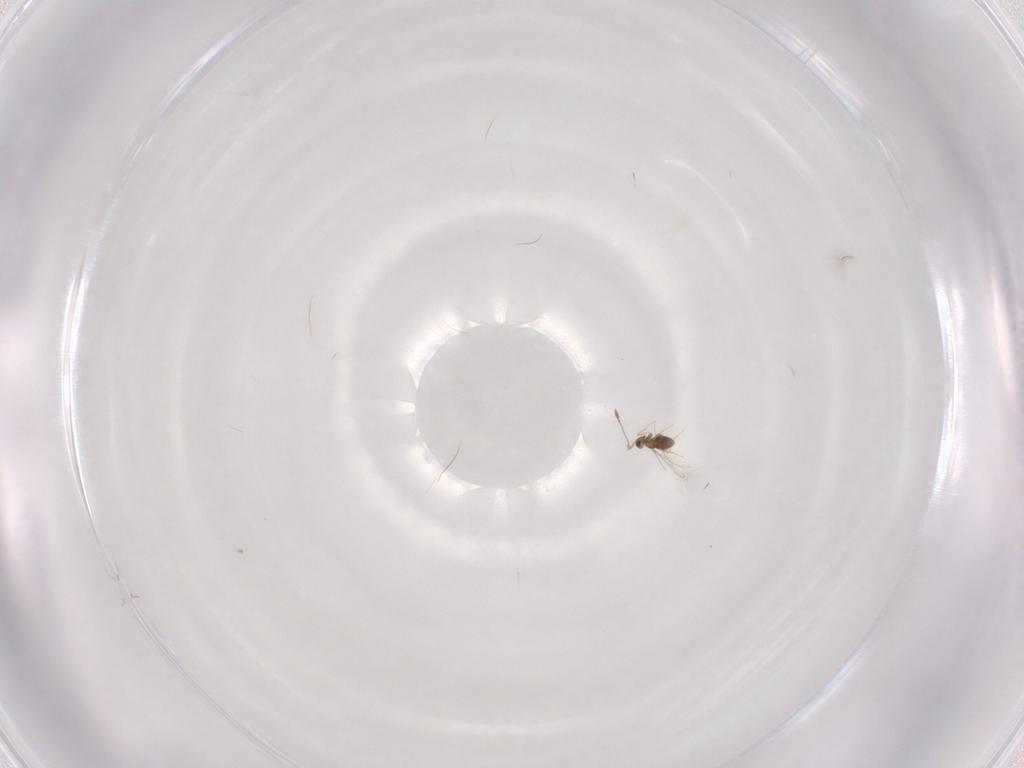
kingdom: Animalia
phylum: Arthropoda
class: Insecta
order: Hymenoptera
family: Mymaridae
